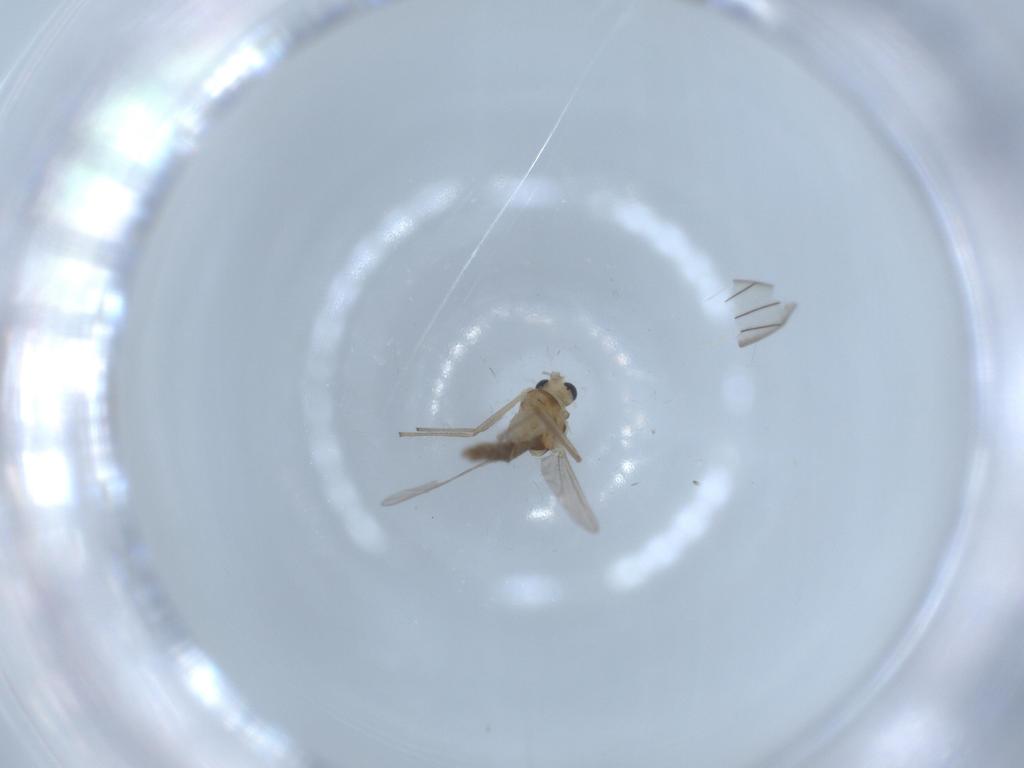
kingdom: Animalia
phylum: Arthropoda
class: Insecta
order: Diptera
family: Chironomidae
